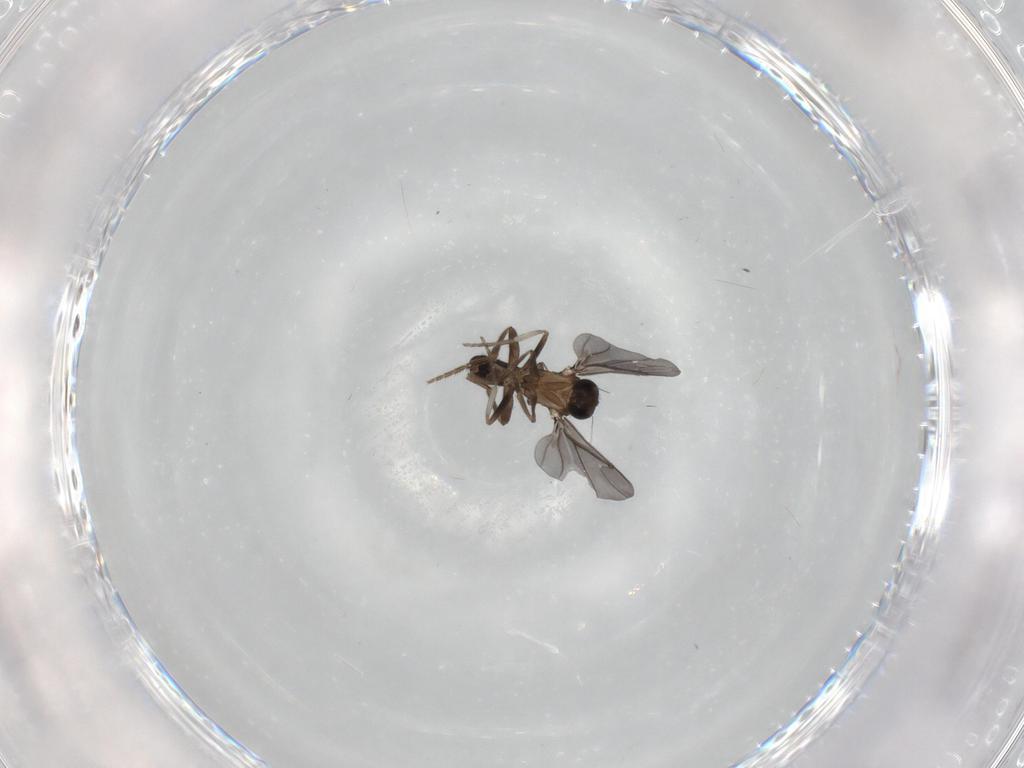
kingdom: Animalia
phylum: Arthropoda
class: Insecta
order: Diptera
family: Phoridae
